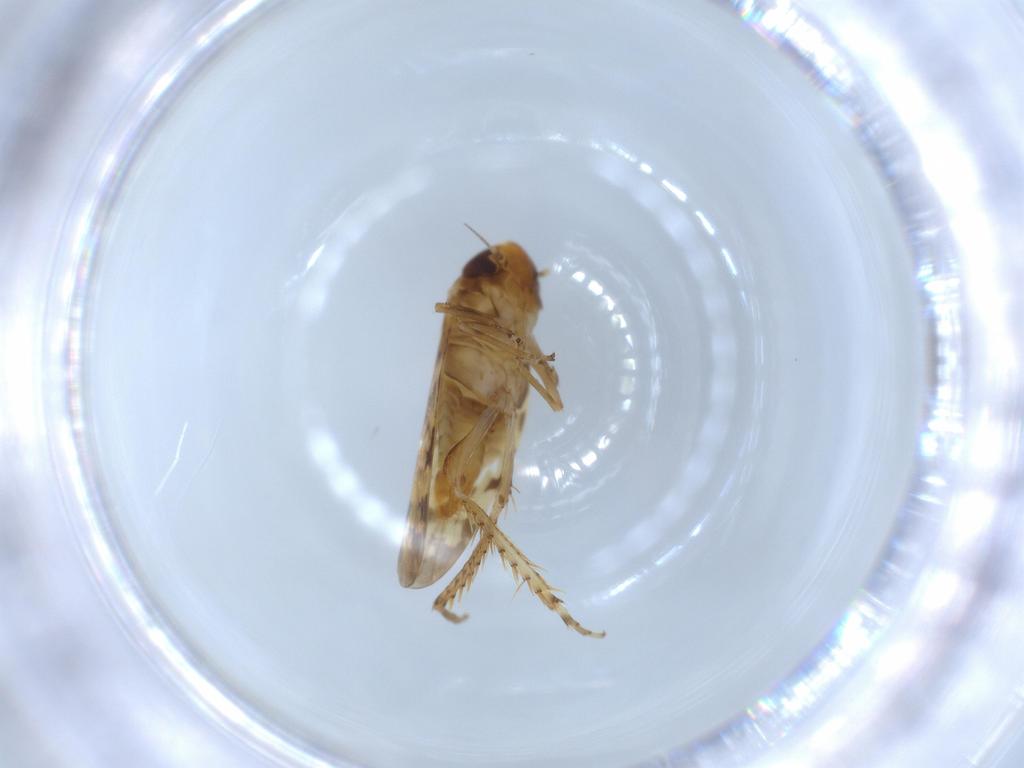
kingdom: Animalia
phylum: Arthropoda
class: Insecta
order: Hemiptera
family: Cicadellidae
